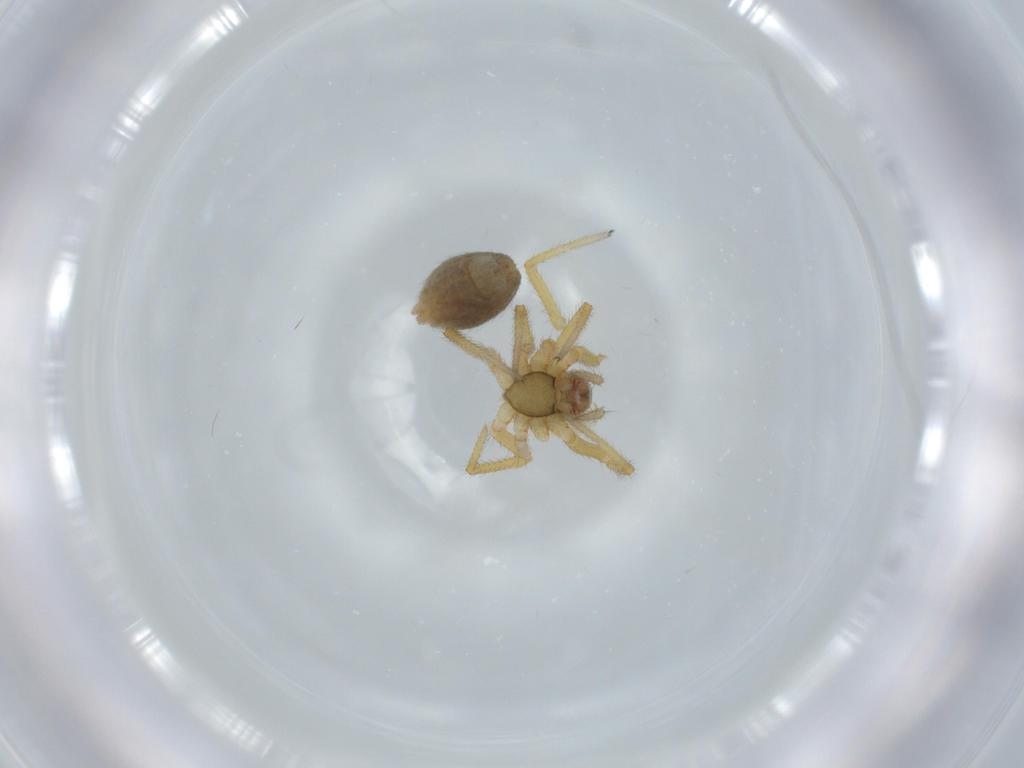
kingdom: Animalia
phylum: Arthropoda
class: Arachnida
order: Araneae
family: Linyphiidae
